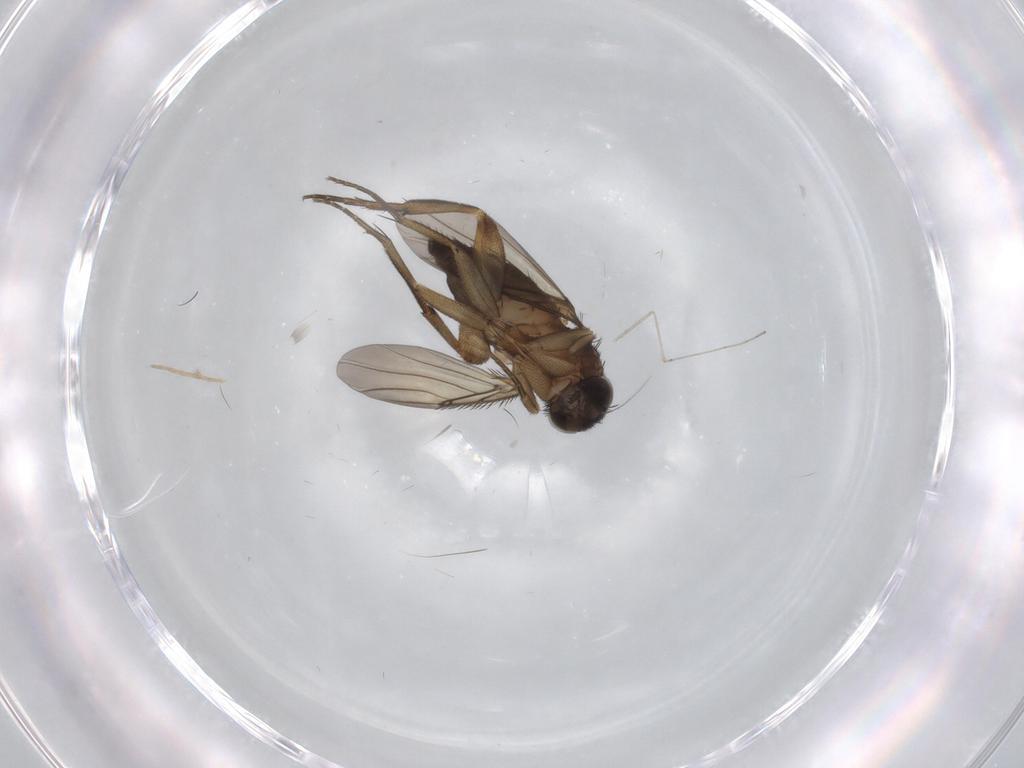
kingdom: Animalia
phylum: Arthropoda
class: Insecta
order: Diptera
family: Phoridae
